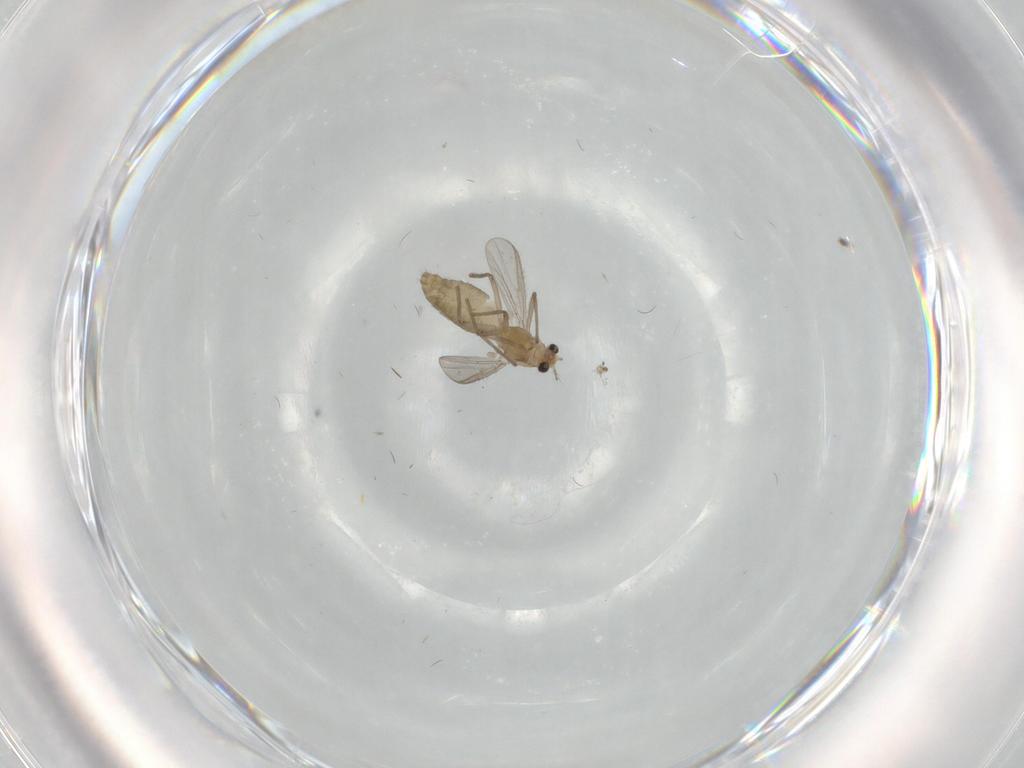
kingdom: Animalia
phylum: Arthropoda
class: Insecta
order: Diptera
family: Chironomidae
